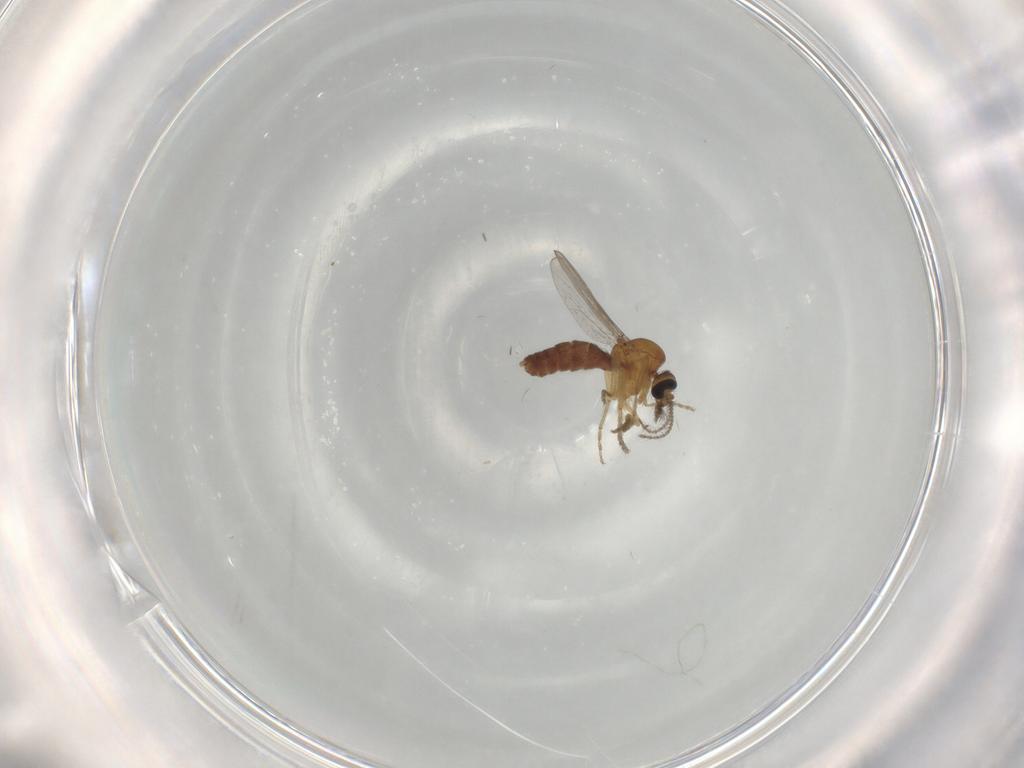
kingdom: Animalia
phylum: Arthropoda
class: Insecta
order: Diptera
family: Ceratopogonidae
